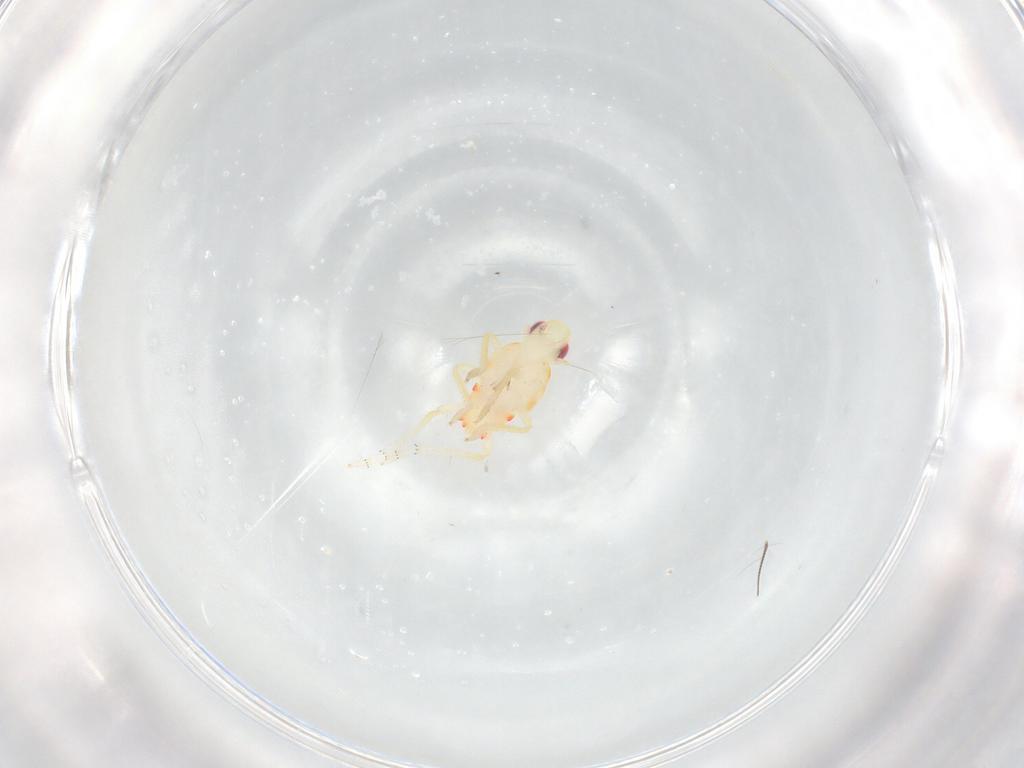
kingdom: Animalia
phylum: Arthropoda
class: Insecta
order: Hemiptera
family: Tropiduchidae
